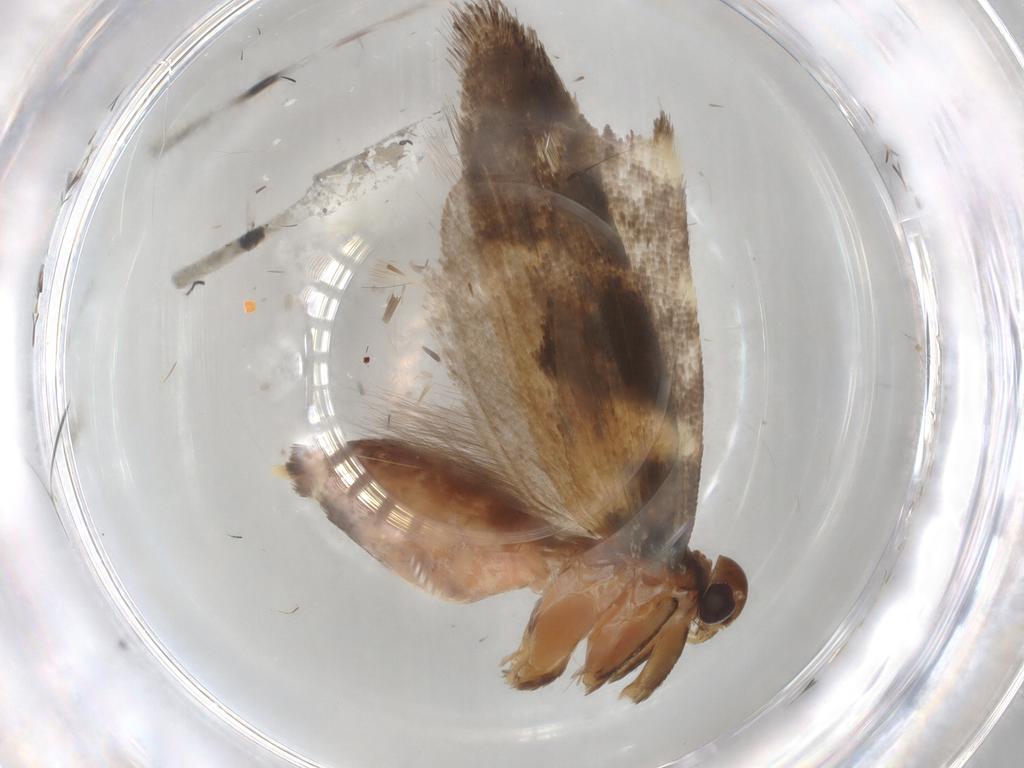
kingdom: Animalia
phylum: Arthropoda
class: Insecta
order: Lepidoptera
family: Gelechiidae
